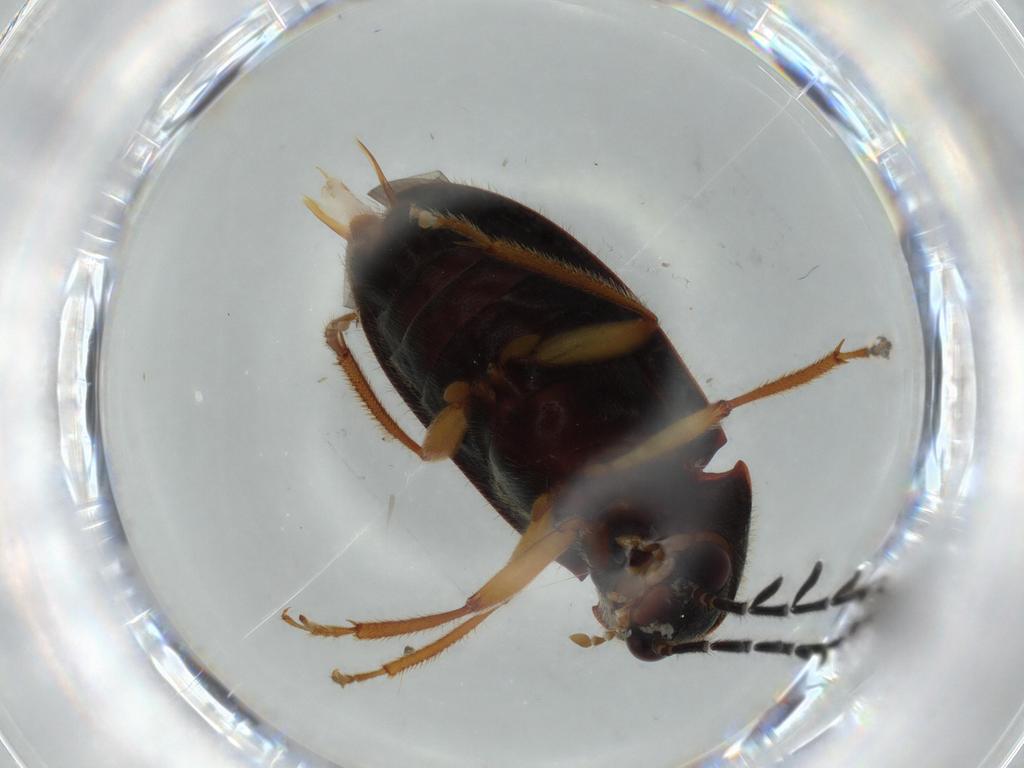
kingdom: Animalia
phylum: Arthropoda
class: Insecta
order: Coleoptera
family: Ptilodactylidae
